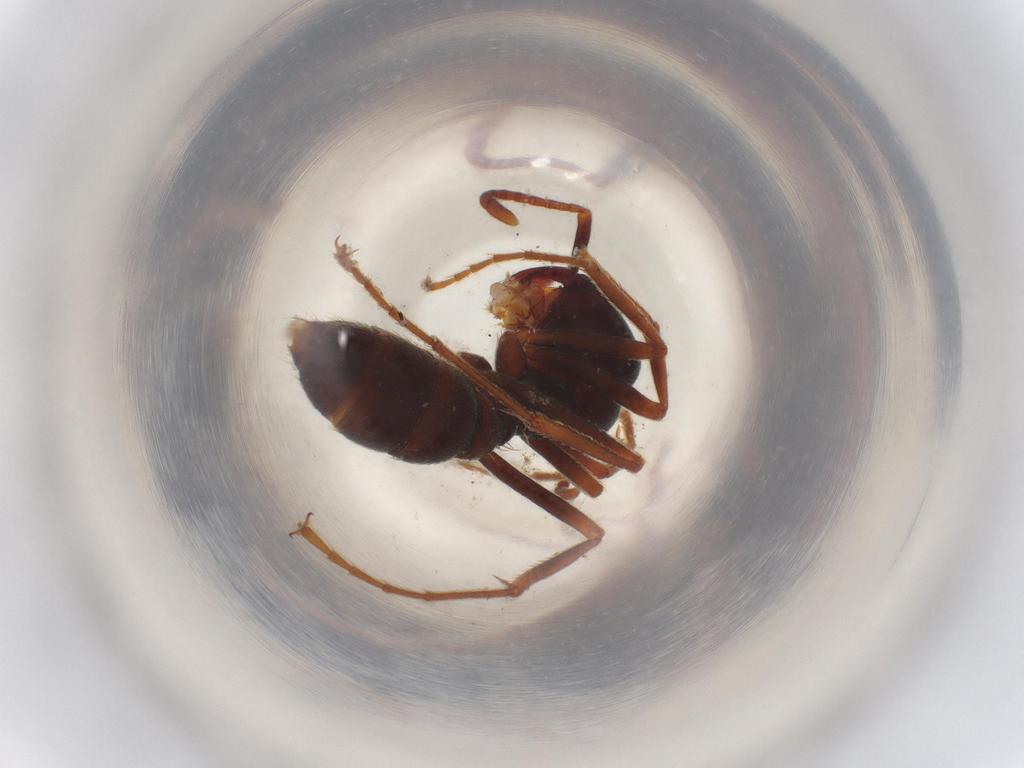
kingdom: Animalia
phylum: Arthropoda
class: Insecta
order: Hymenoptera
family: Formicidae
